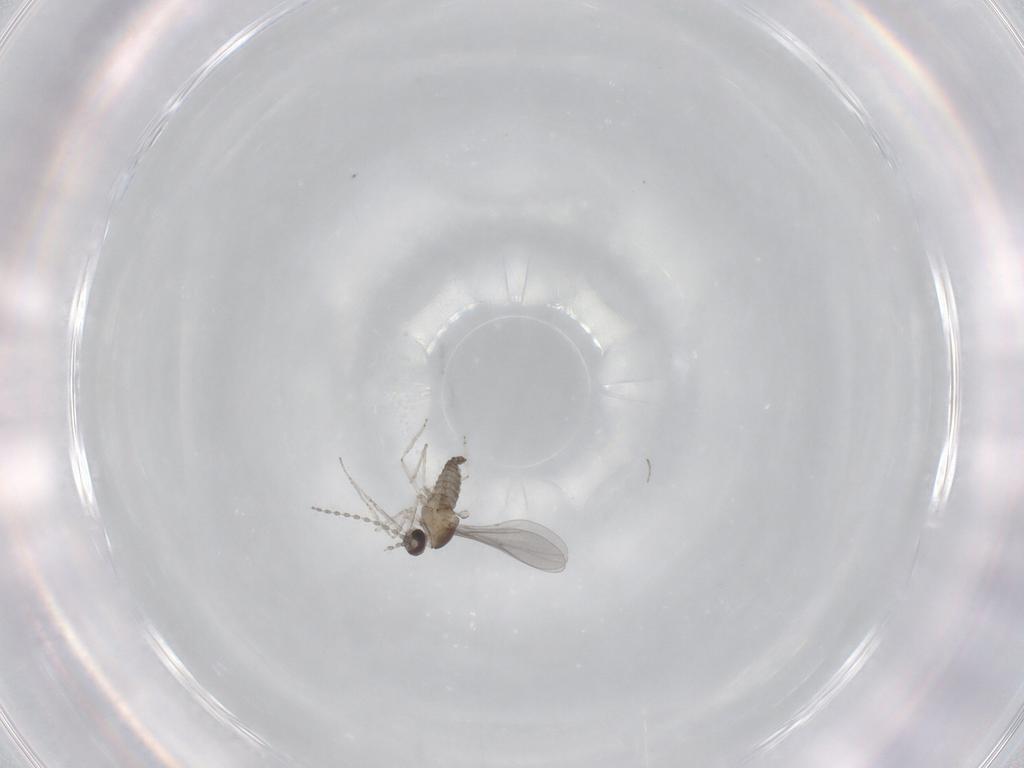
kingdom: Animalia
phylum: Arthropoda
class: Insecta
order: Diptera
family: Cecidomyiidae
